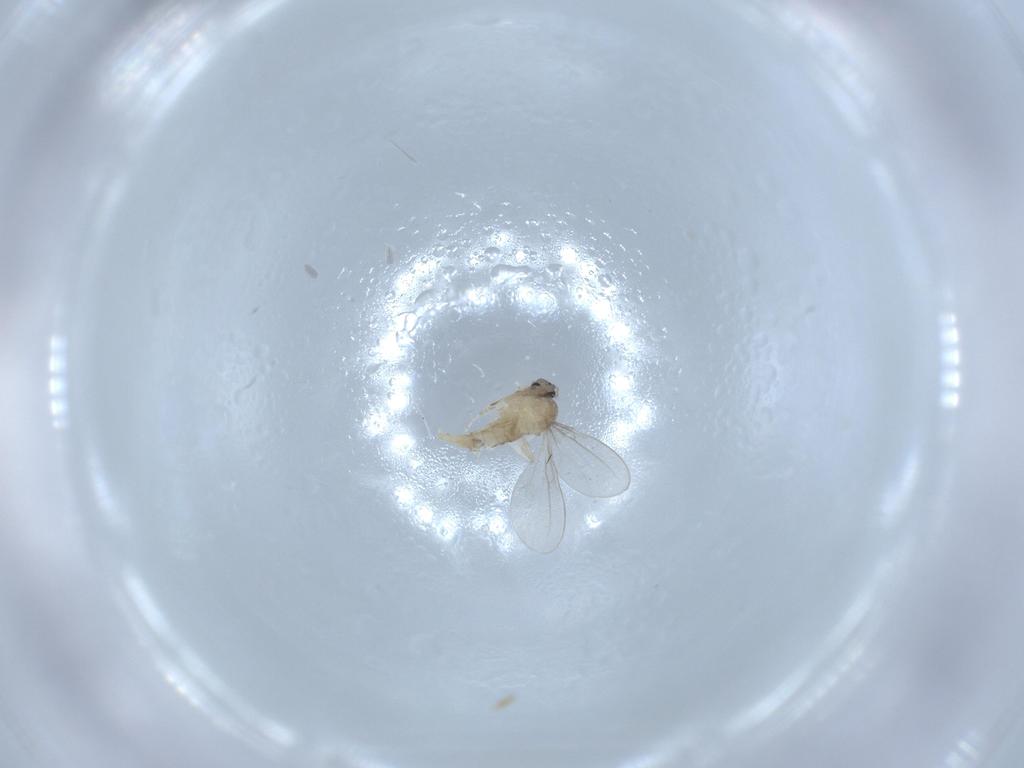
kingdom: Animalia
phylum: Arthropoda
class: Insecta
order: Diptera
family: Cecidomyiidae
